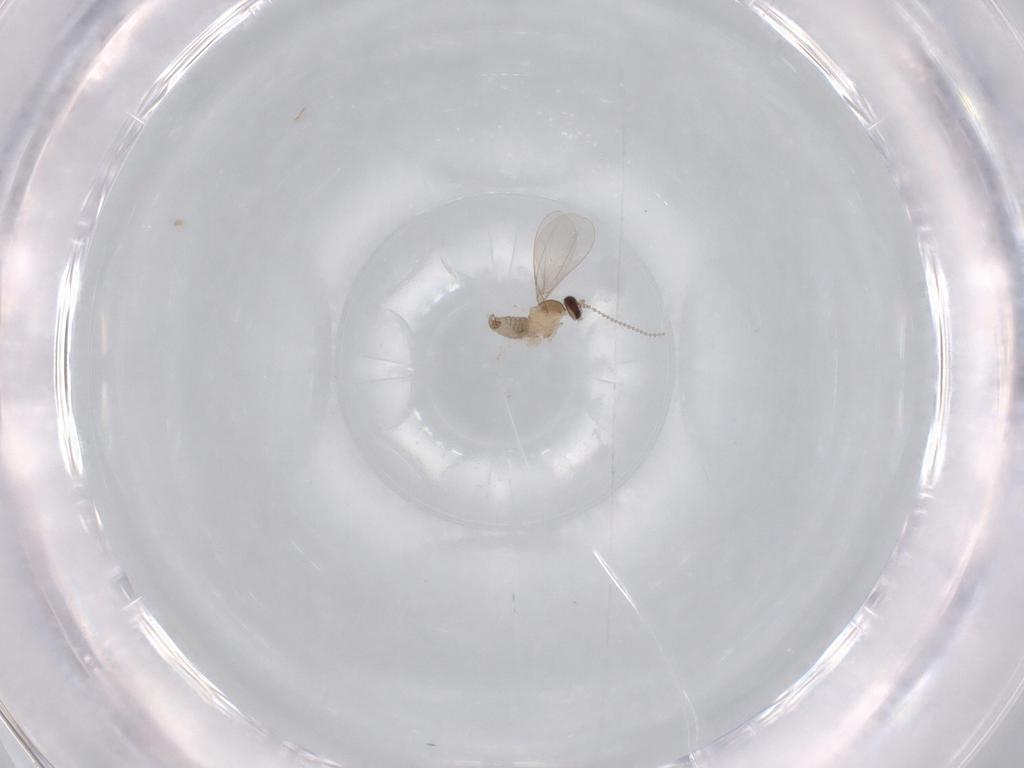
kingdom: Animalia
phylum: Arthropoda
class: Insecta
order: Diptera
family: Cecidomyiidae
